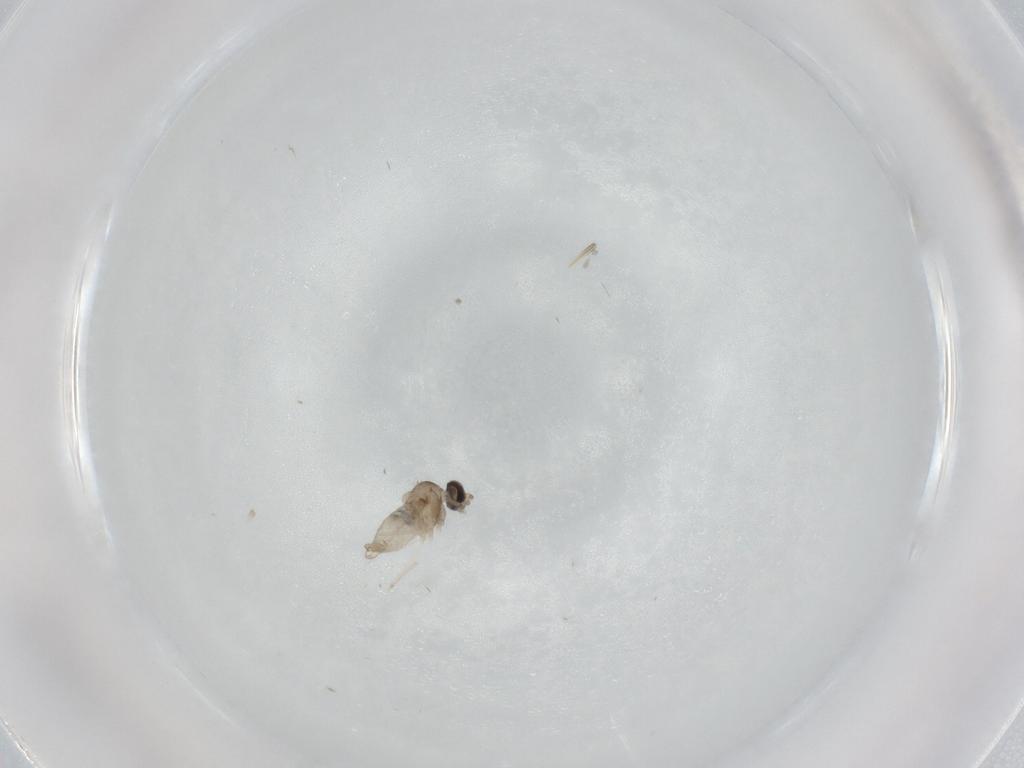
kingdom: Animalia
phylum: Arthropoda
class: Insecta
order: Diptera
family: Cecidomyiidae
